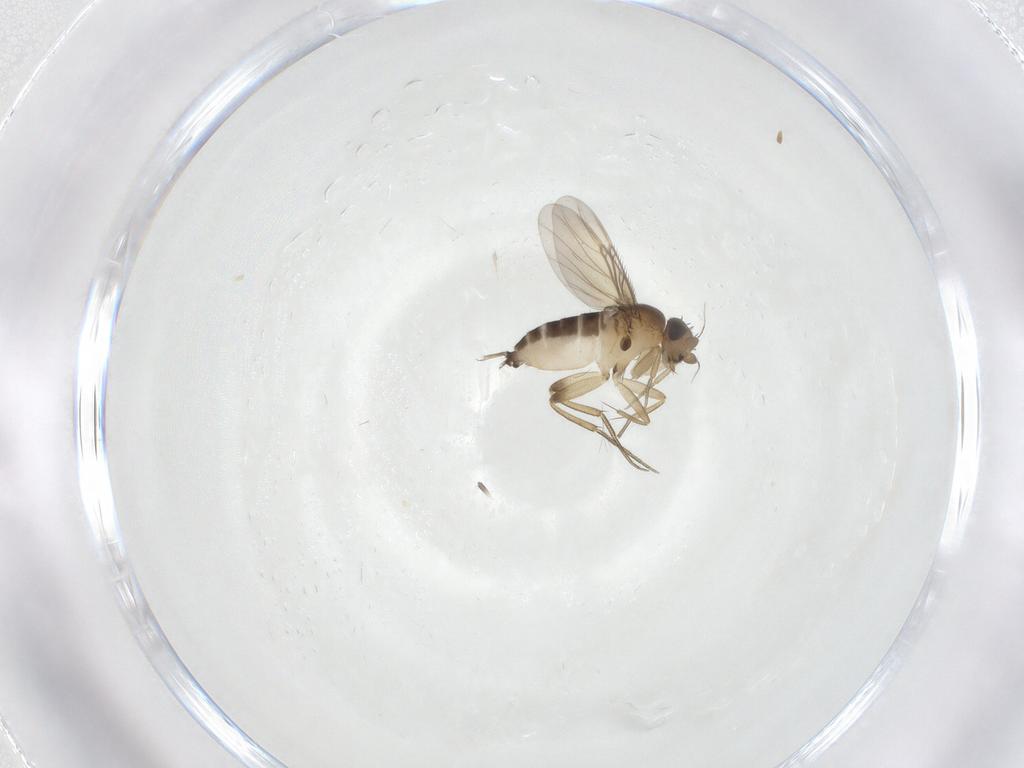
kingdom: Animalia
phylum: Arthropoda
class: Insecta
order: Diptera
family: Phoridae
